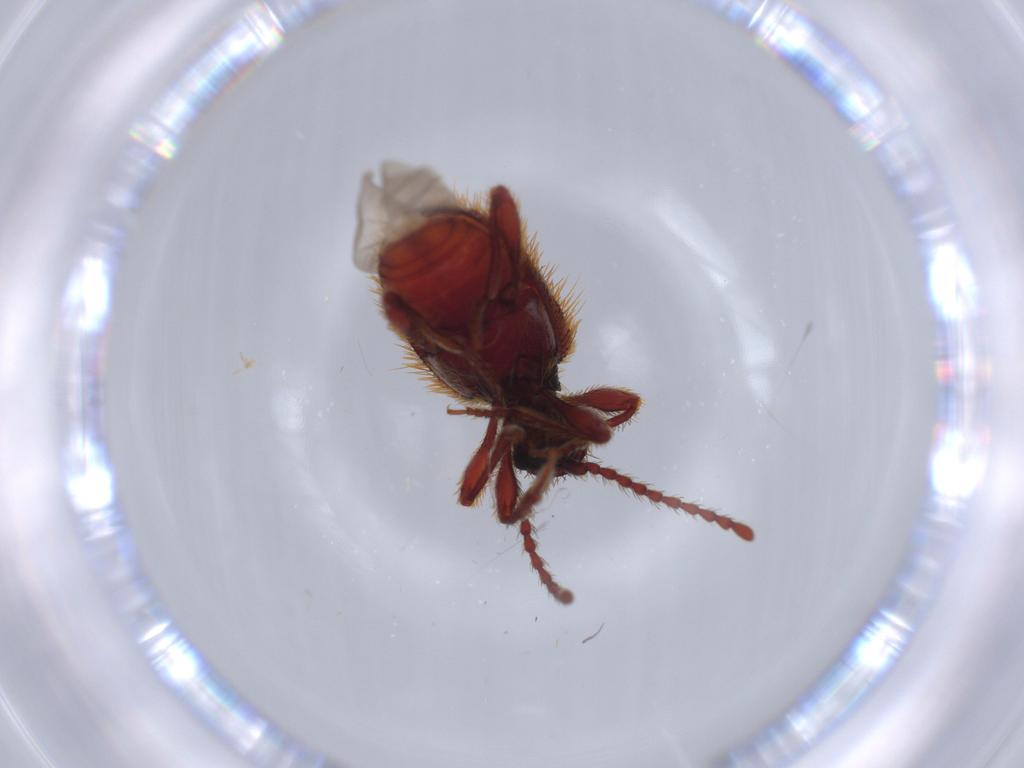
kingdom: Animalia
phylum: Arthropoda
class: Insecta
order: Coleoptera
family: Ptinidae
